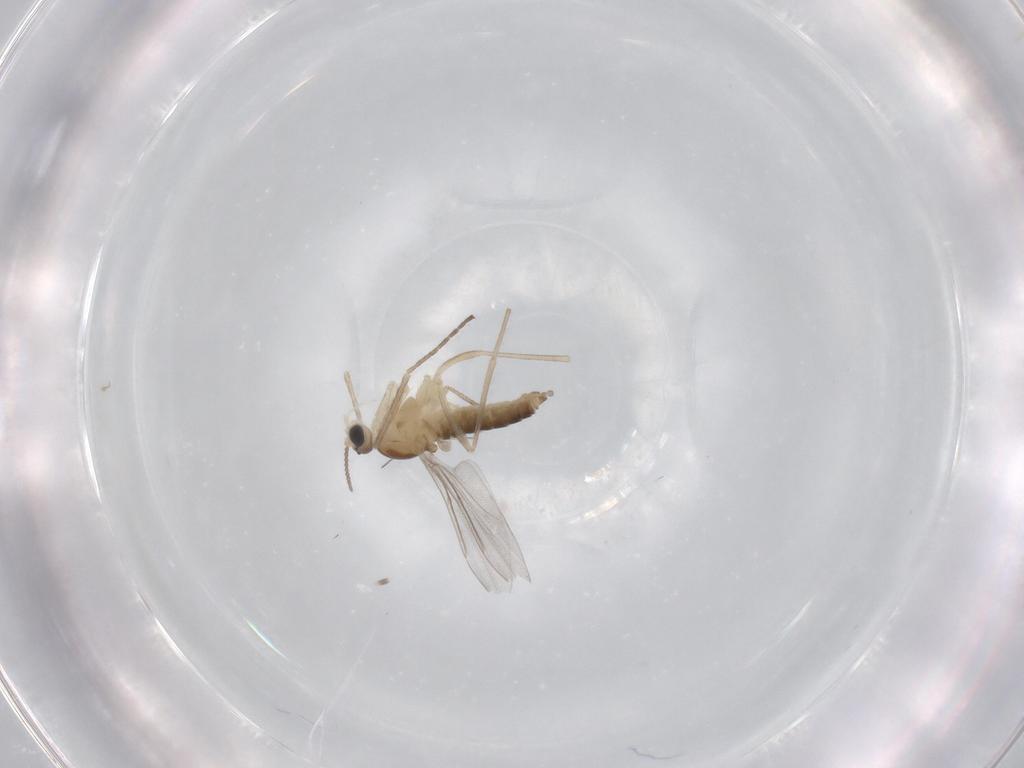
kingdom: Animalia
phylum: Arthropoda
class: Insecta
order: Diptera
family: Cecidomyiidae
